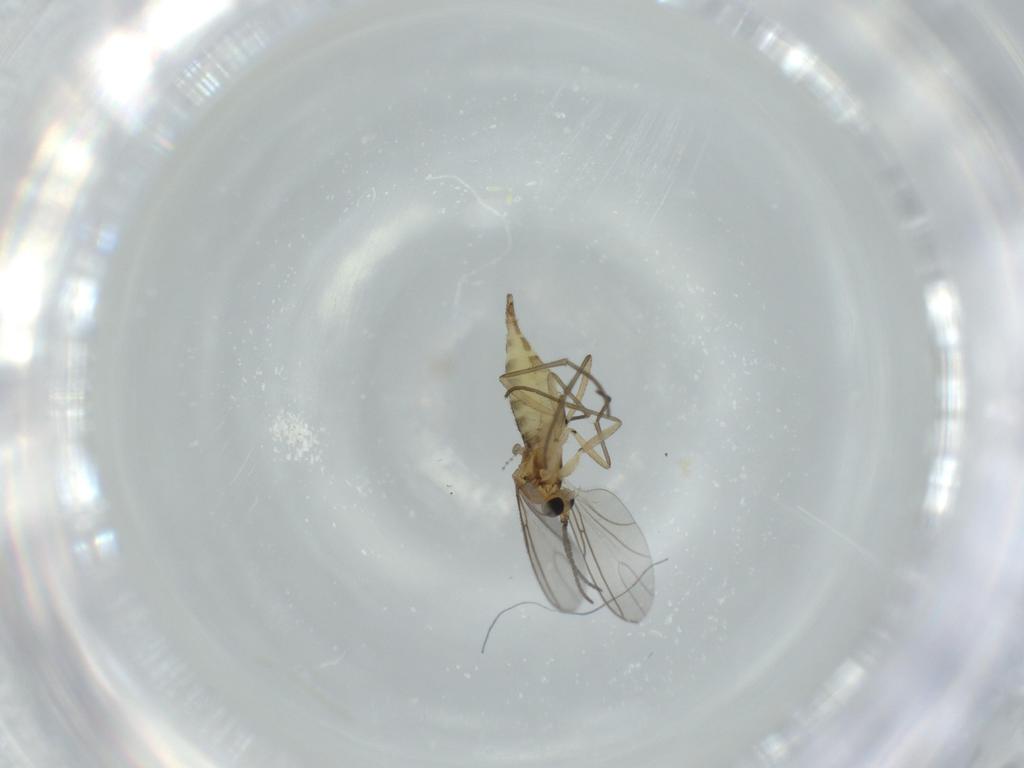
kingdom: Animalia
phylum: Arthropoda
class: Insecta
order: Diptera
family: Cecidomyiidae
